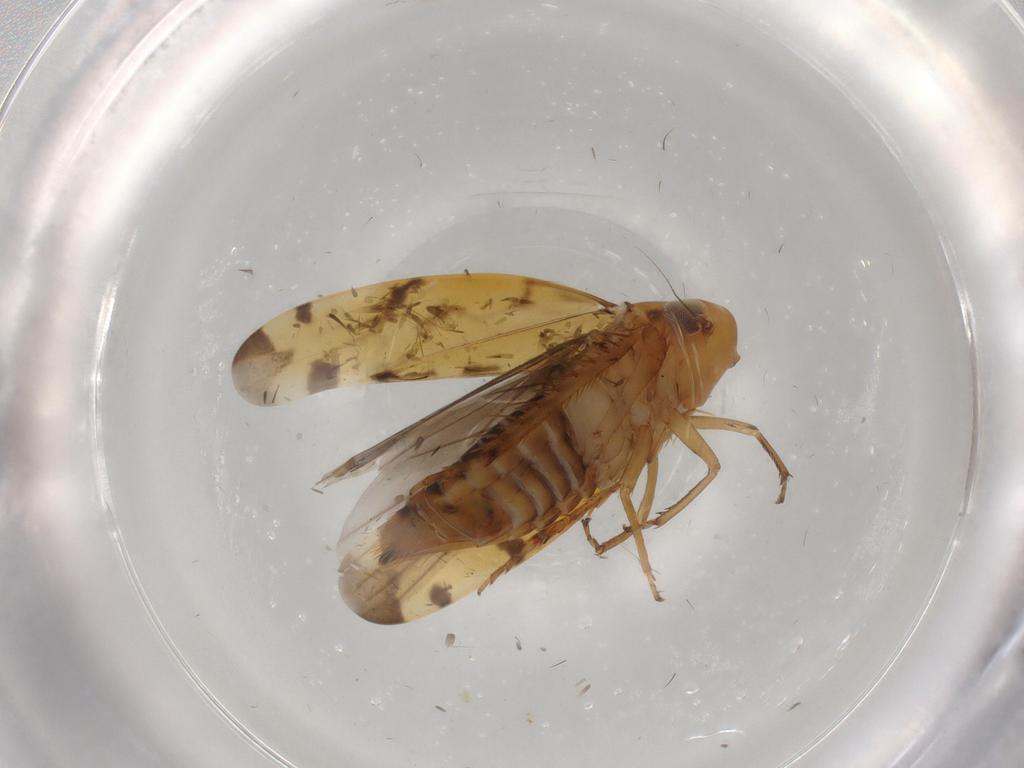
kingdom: Animalia
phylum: Arthropoda
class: Insecta
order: Hemiptera
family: Cicadellidae
